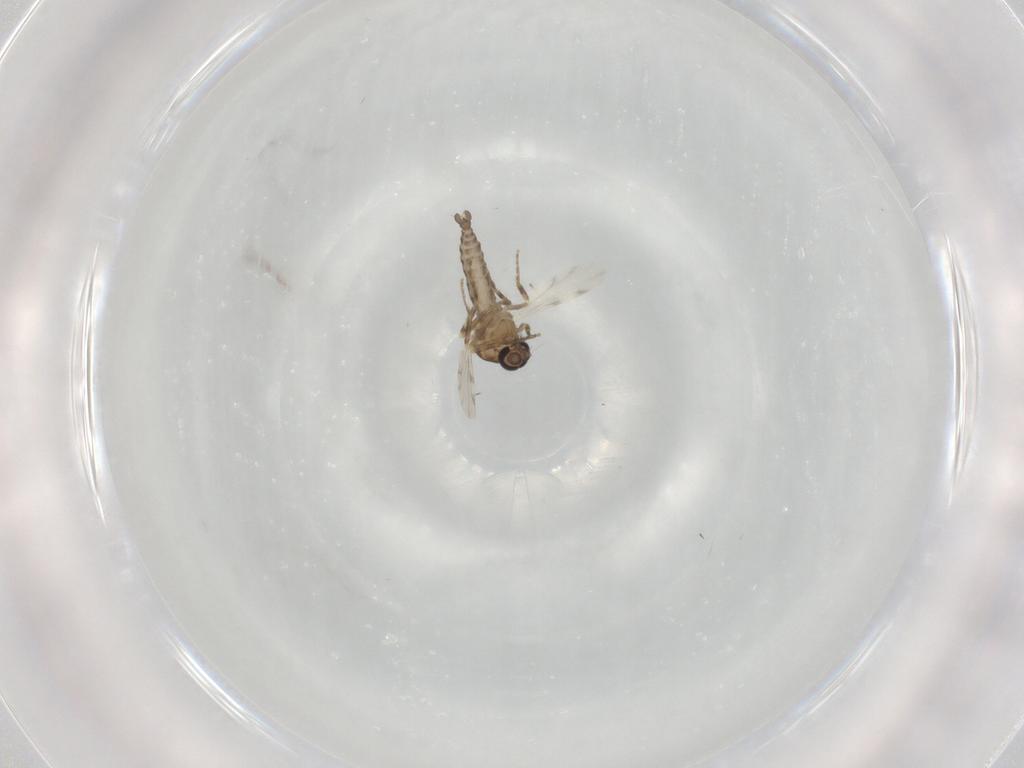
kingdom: Animalia
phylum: Arthropoda
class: Insecta
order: Diptera
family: Ceratopogonidae
